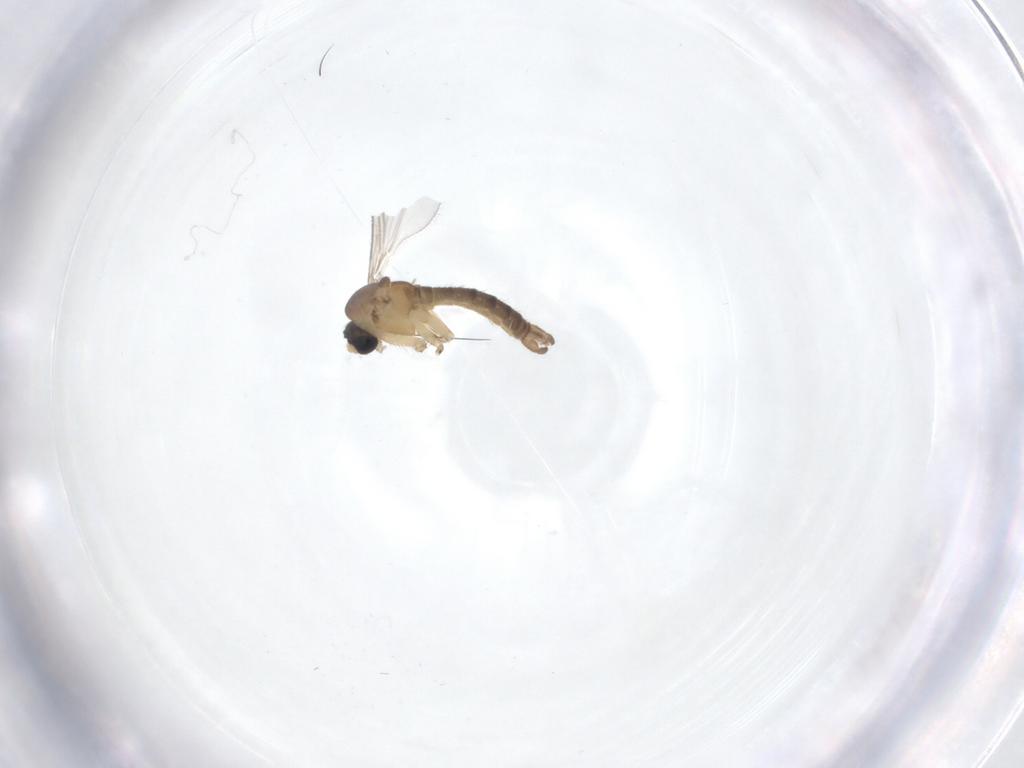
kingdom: Animalia
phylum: Arthropoda
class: Insecta
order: Diptera
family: Sciaridae
